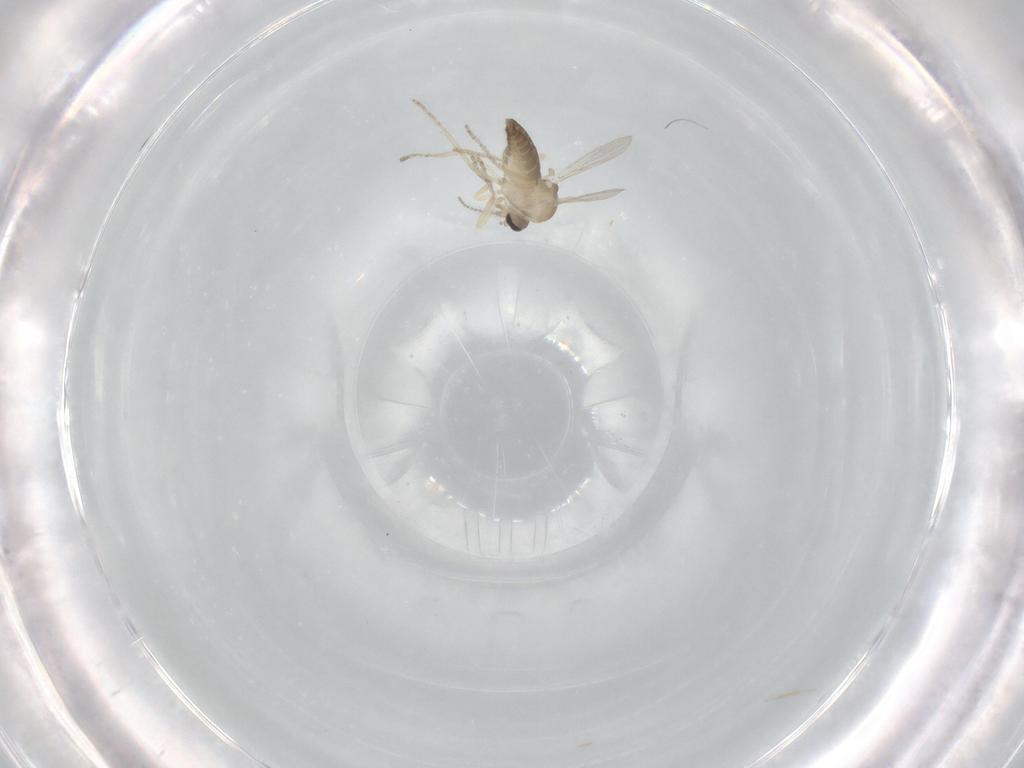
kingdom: Animalia
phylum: Arthropoda
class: Insecta
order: Diptera
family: Ceratopogonidae
